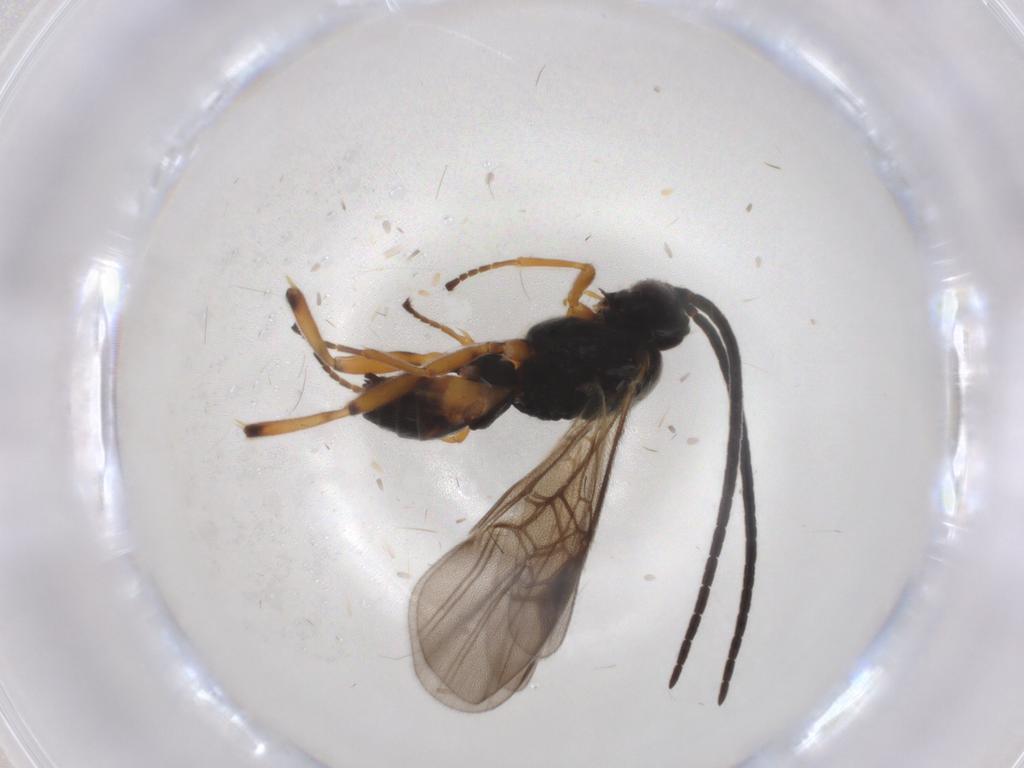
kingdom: Animalia
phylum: Arthropoda
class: Insecta
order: Hymenoptera
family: Braconidae
